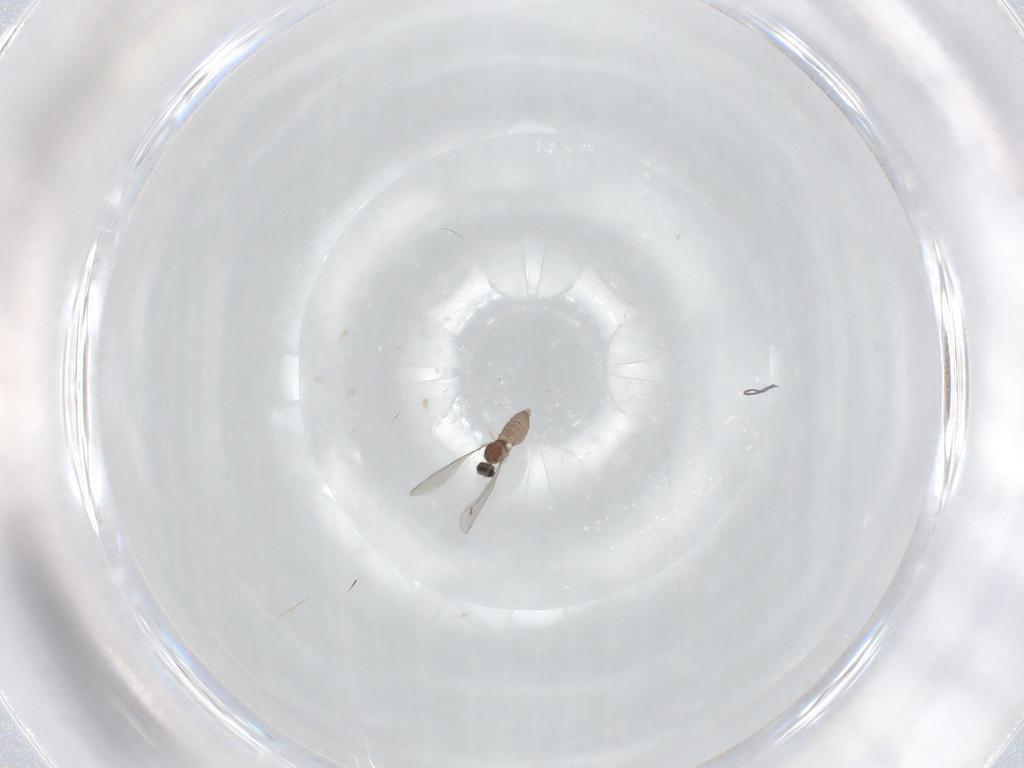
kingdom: Animalia
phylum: Arthropoda
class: Insecta
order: Diptera
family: Cecidomyiidae
